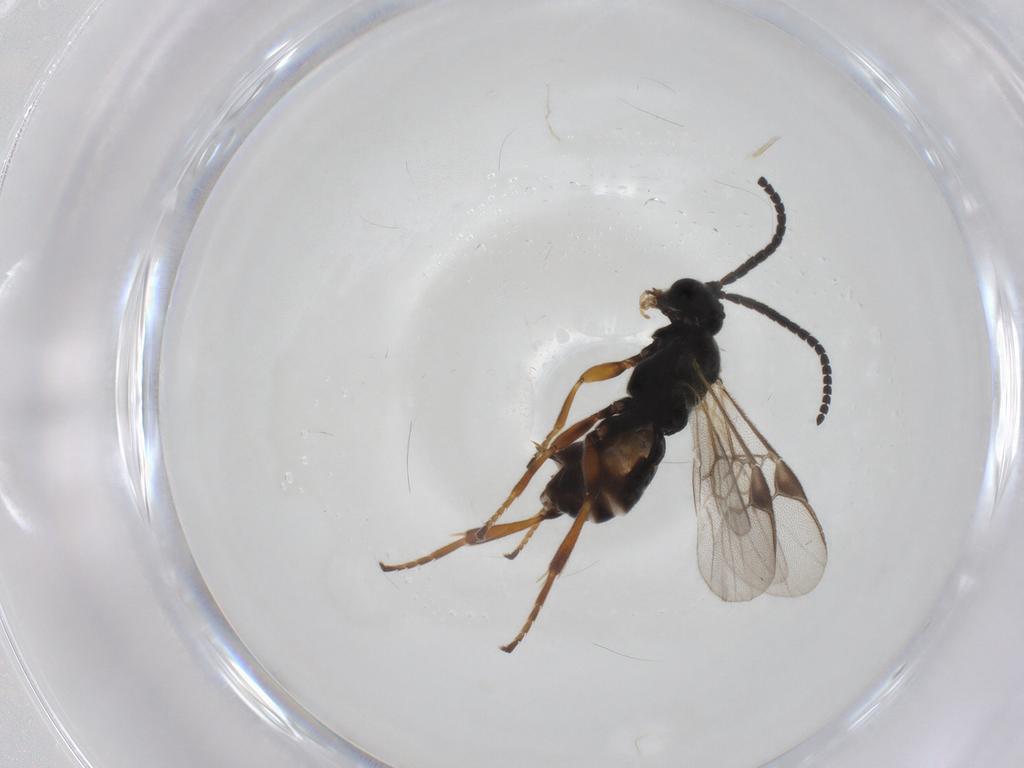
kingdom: Animalia
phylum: Arthropoda
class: Insecta
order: Hymenoptera
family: Braconidae
